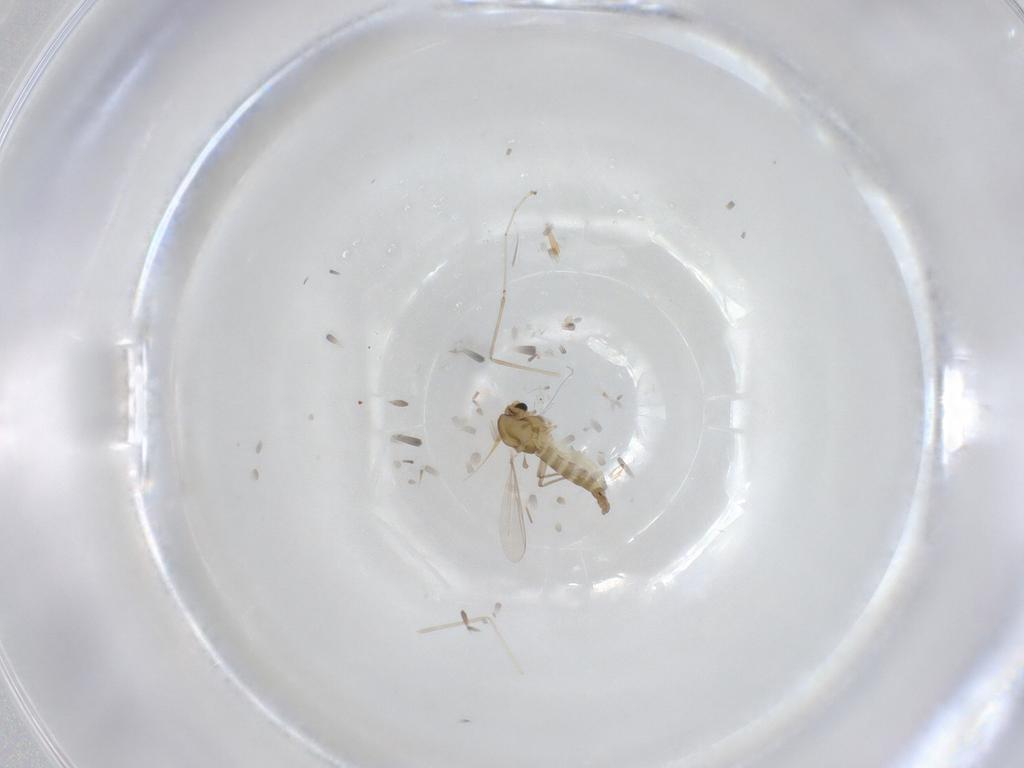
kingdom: Animalia
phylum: Arthropoda
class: Insecta
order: Diptera
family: Chironomidae
